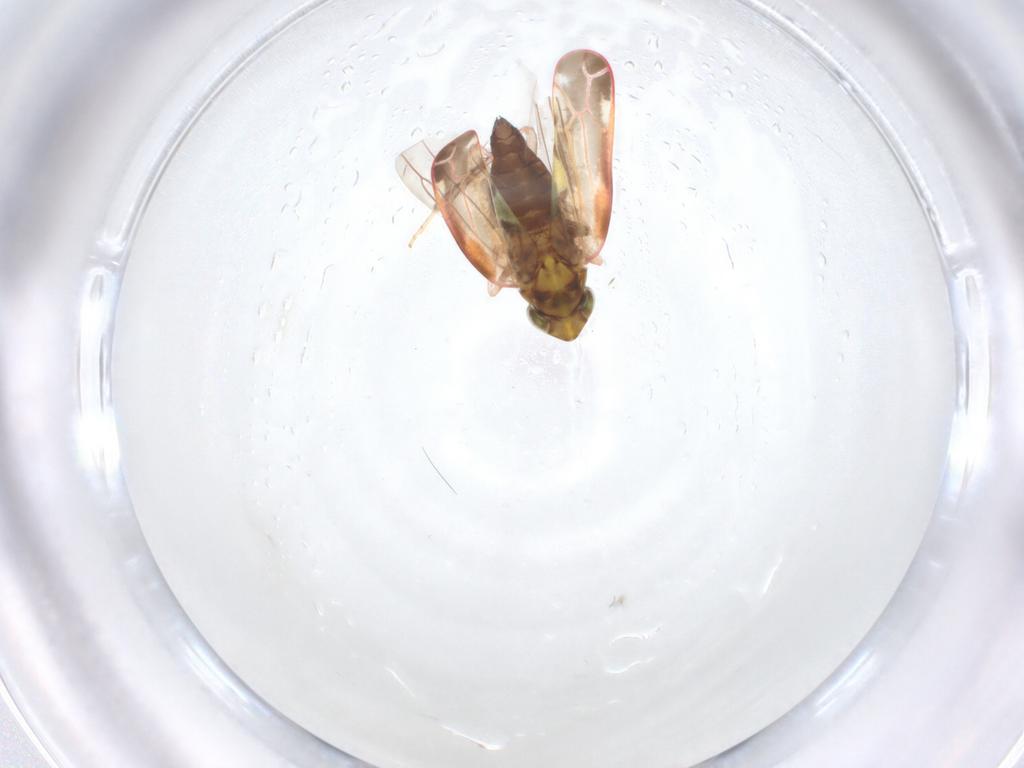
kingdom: Animalia
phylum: Arthropoda
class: Insecta
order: Hemiptera
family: Cicadellidae
